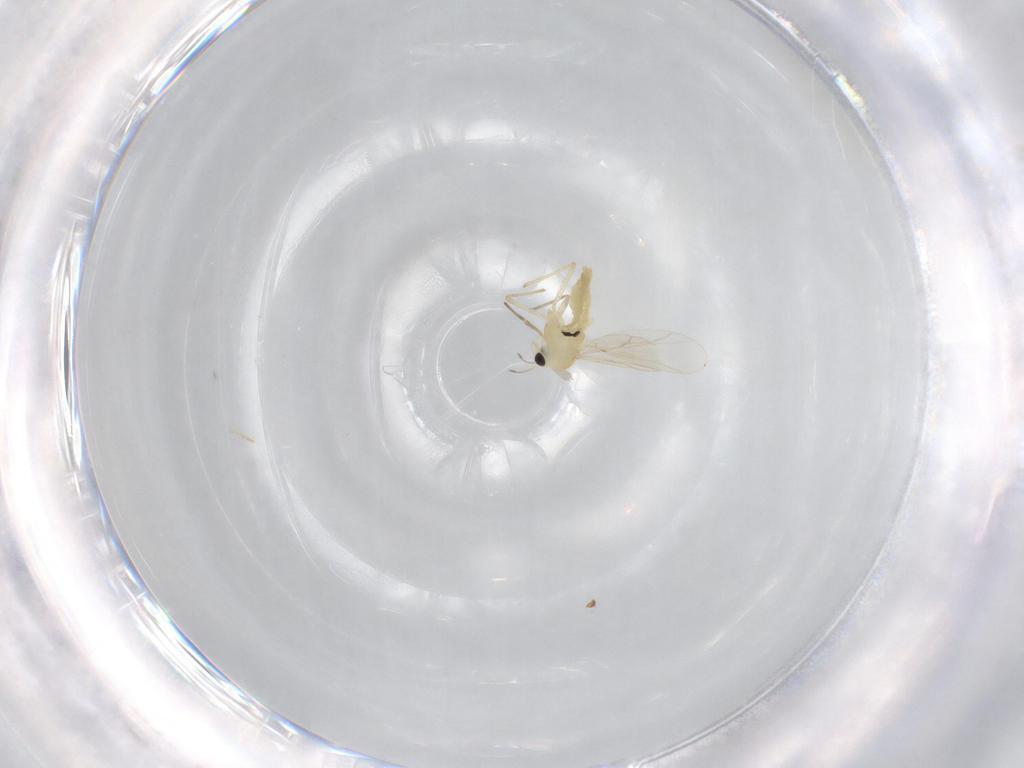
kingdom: Animalia
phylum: Arthropoda
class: Insecta
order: Diptera
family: Chironomidae
